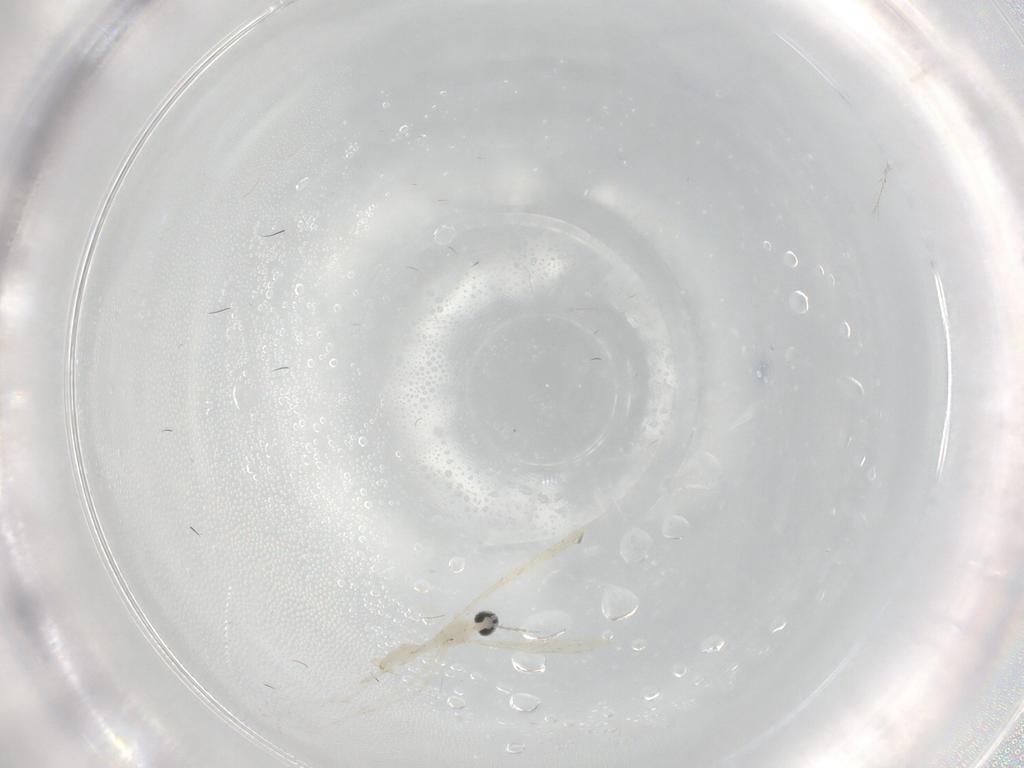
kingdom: Animalia
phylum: Arthropoda
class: Insecta
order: Diptera
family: Cecidomyiidae
